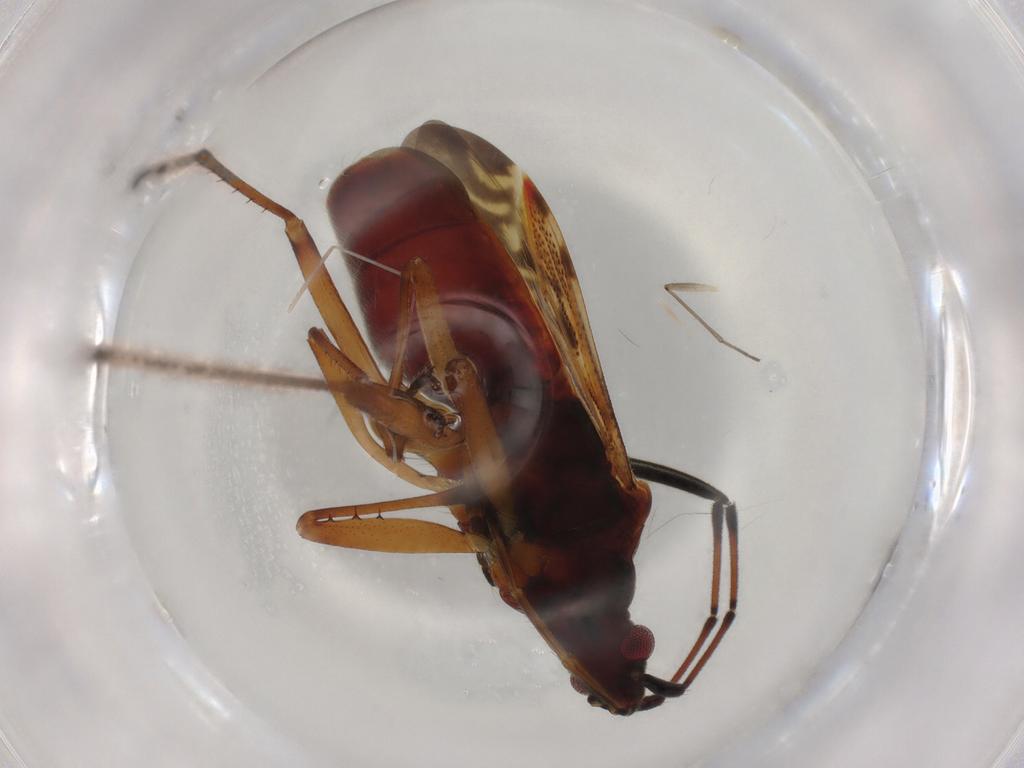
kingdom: Animalia
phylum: Arthropoda
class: Insecta
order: Hemiptera
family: Rhyparochromidae
